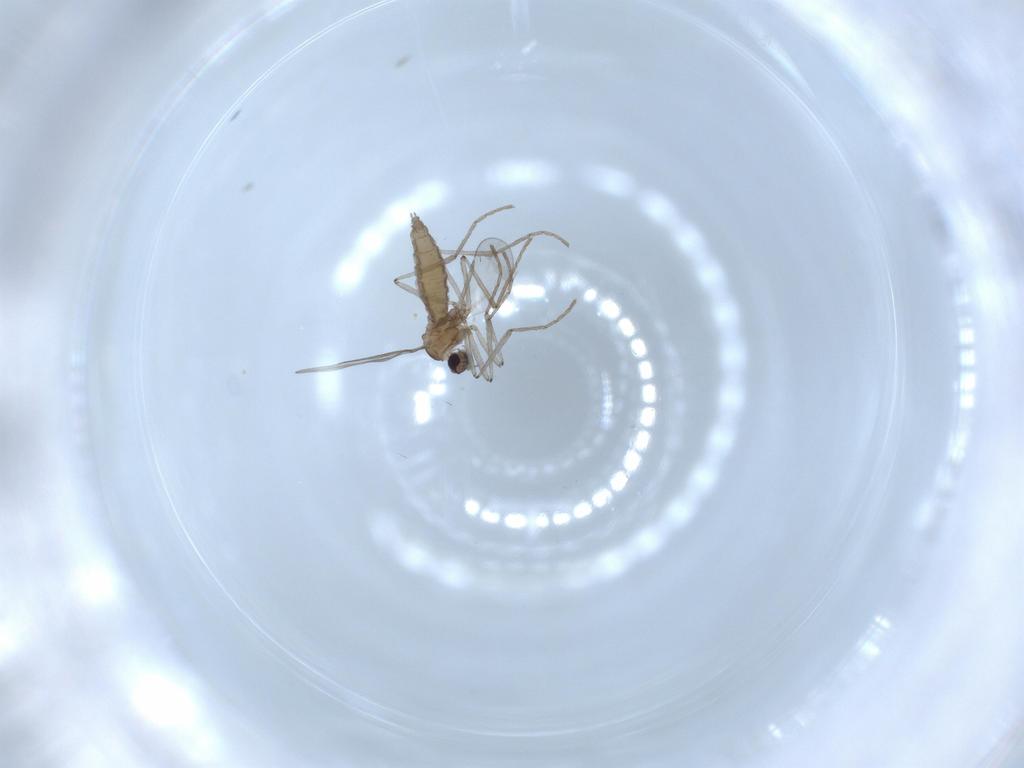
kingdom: Animalia
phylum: Arthropoda
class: Insecta
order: Diptera
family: Cecidomyiidae
